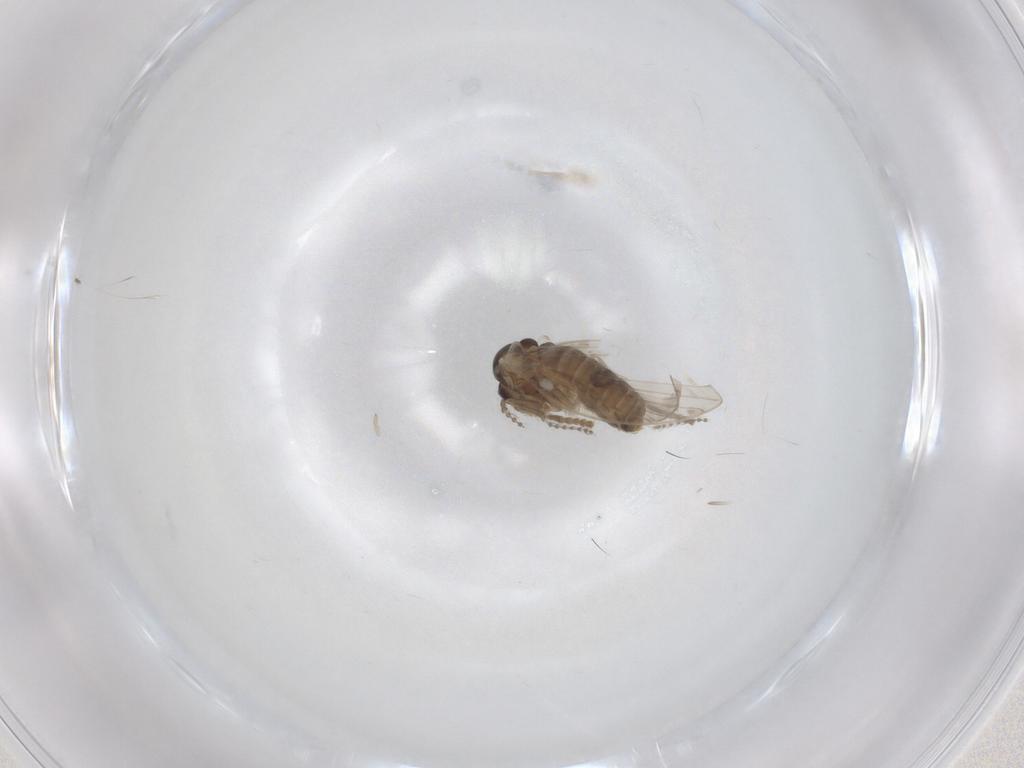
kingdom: Animalia
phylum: Arthropoda
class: Insecta
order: Diptera
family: Psychodidae
